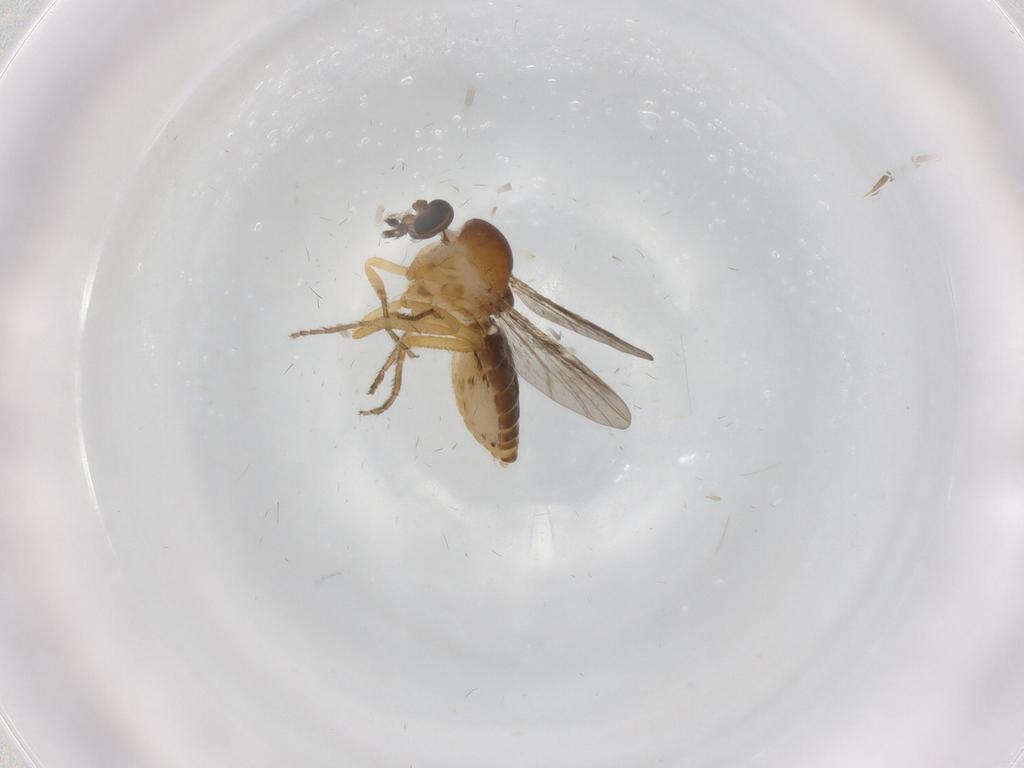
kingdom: Animalia
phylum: Arthropoda
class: Insecta
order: Diptera
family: Ceratopogonidae
